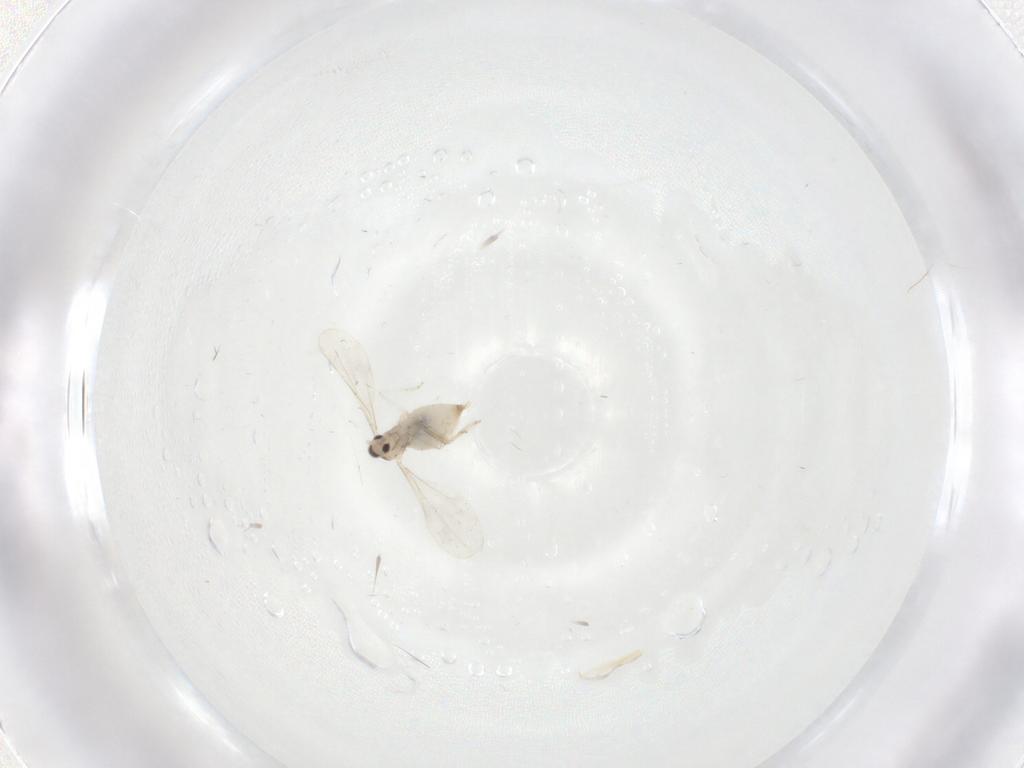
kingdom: Animalia
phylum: Arthropoda
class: Insecta
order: Diptera
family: Cecidomyiidae
